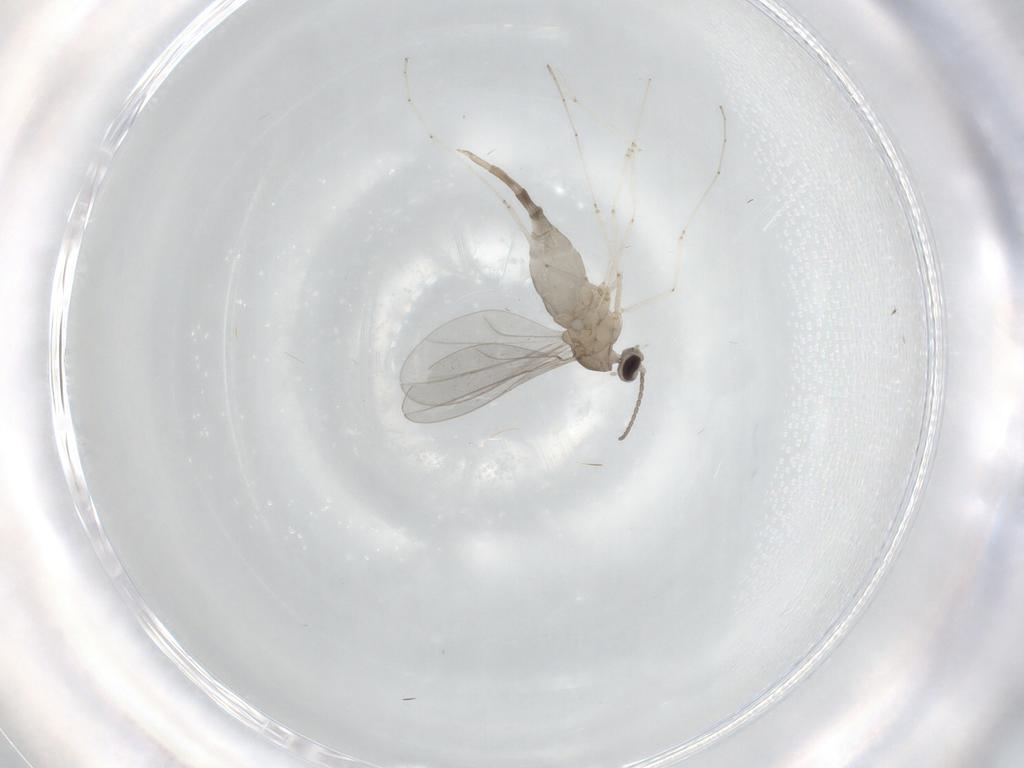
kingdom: Animalia
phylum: Arthropoda
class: Insecta
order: Diptera
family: Cecidomyiidae
